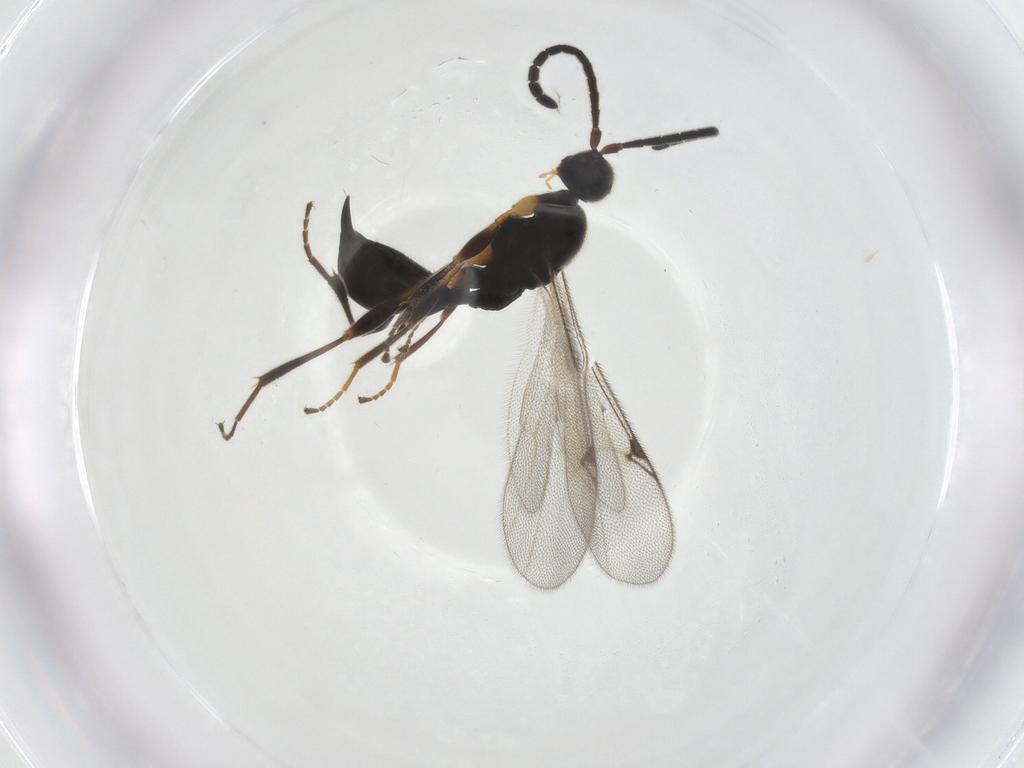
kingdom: Animalia
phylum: Arthropoda
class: Insecta
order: Hymenoptera
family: Proctotrupidae
